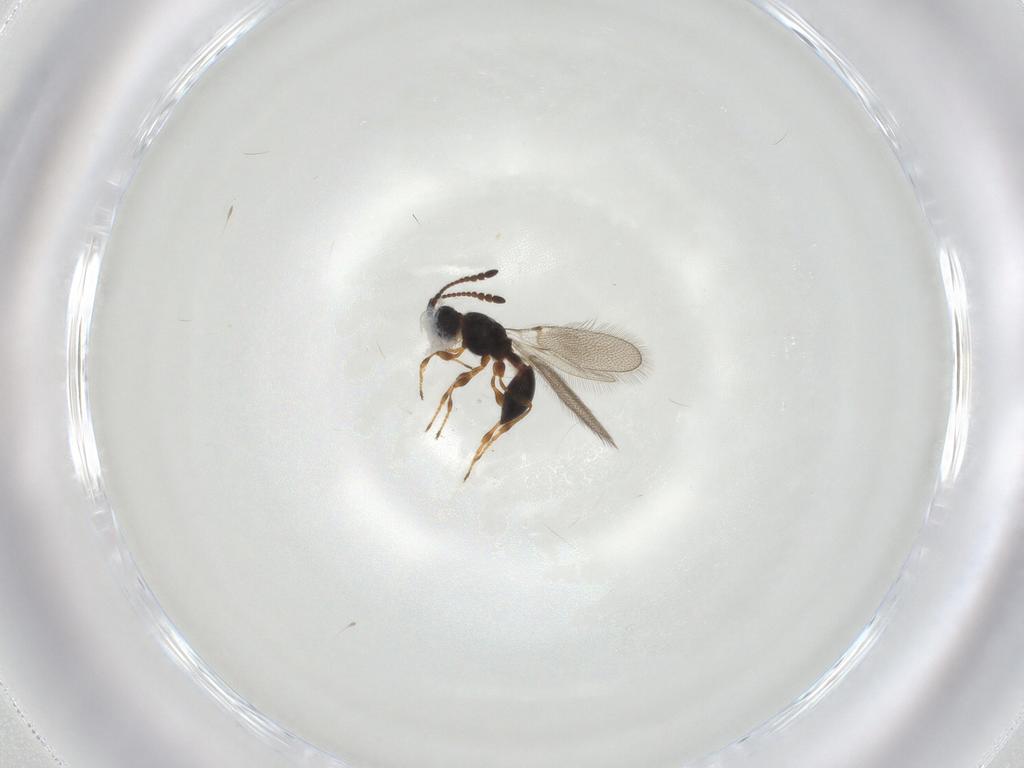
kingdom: Animalia
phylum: Arthropoda
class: Insecta
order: Hymenoptera
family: Diapriidae
